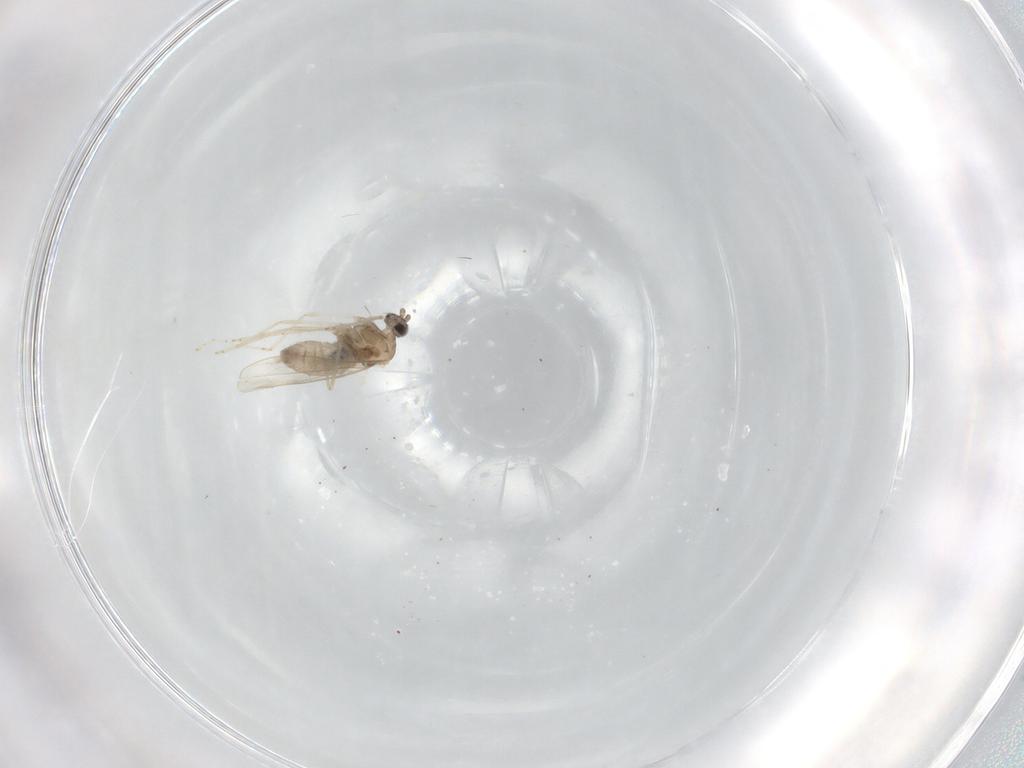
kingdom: Animalia
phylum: Arthropoda
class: Insecta
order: Diptera
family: Cecidomyiidae
